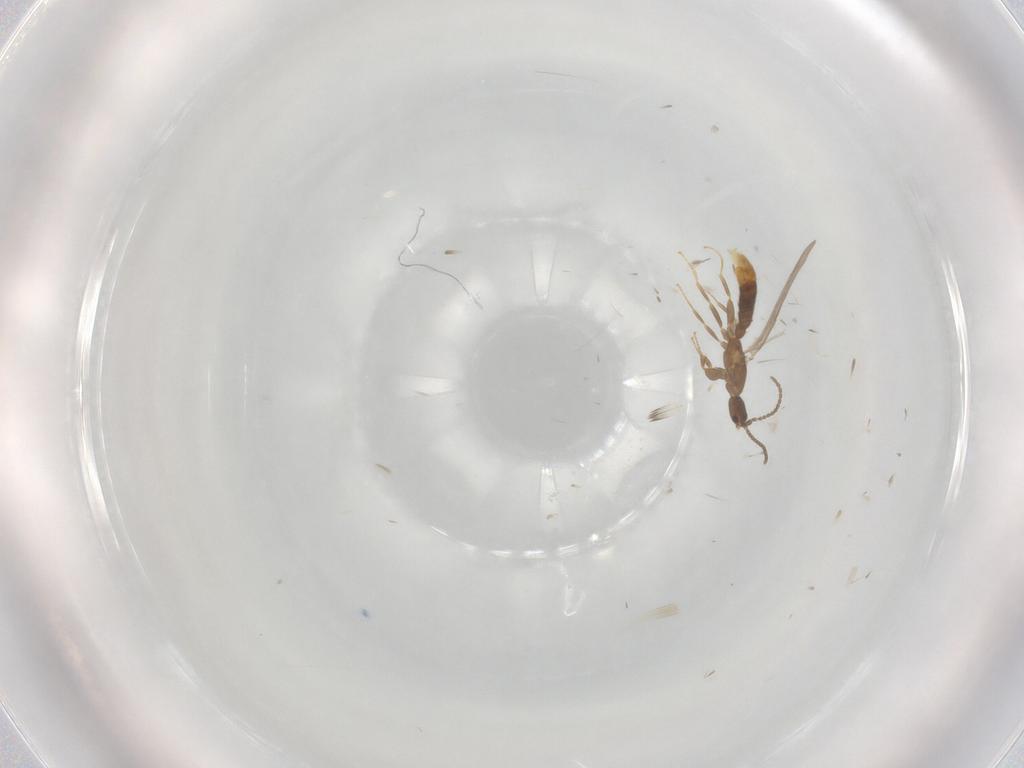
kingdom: Animalia
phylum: Arthropoda
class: Insecta
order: Hymenoptera
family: Formicidae
